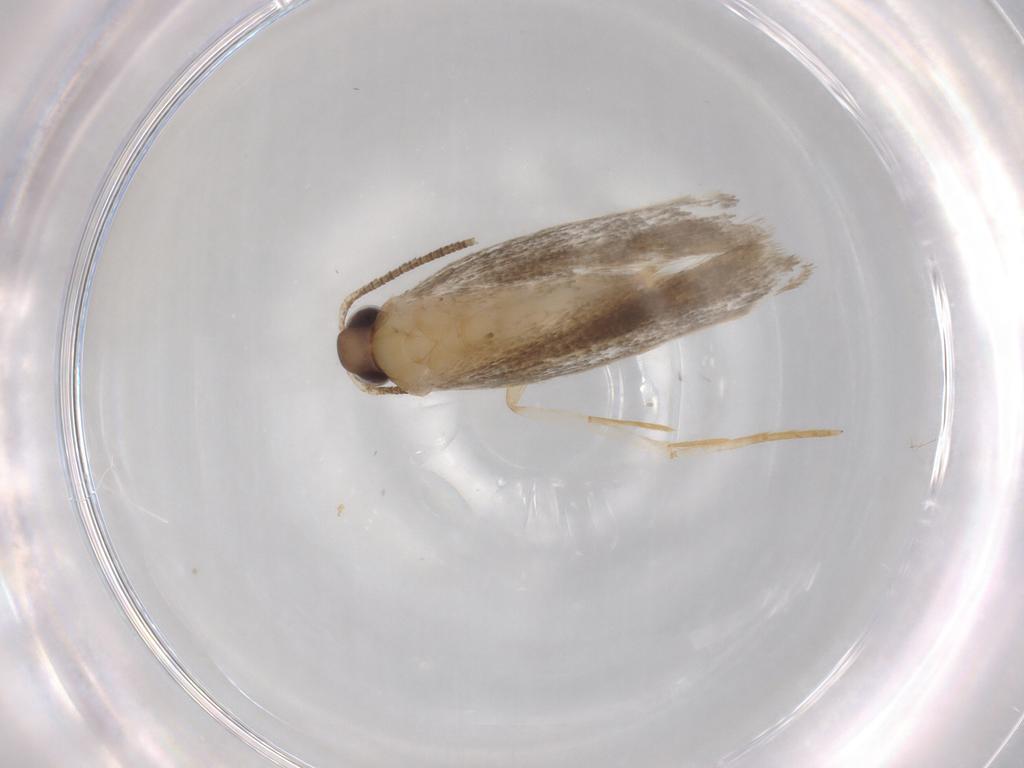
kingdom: Animalia
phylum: Arthropoda
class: Insecta
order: Lepidoptera
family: Autostichidae
